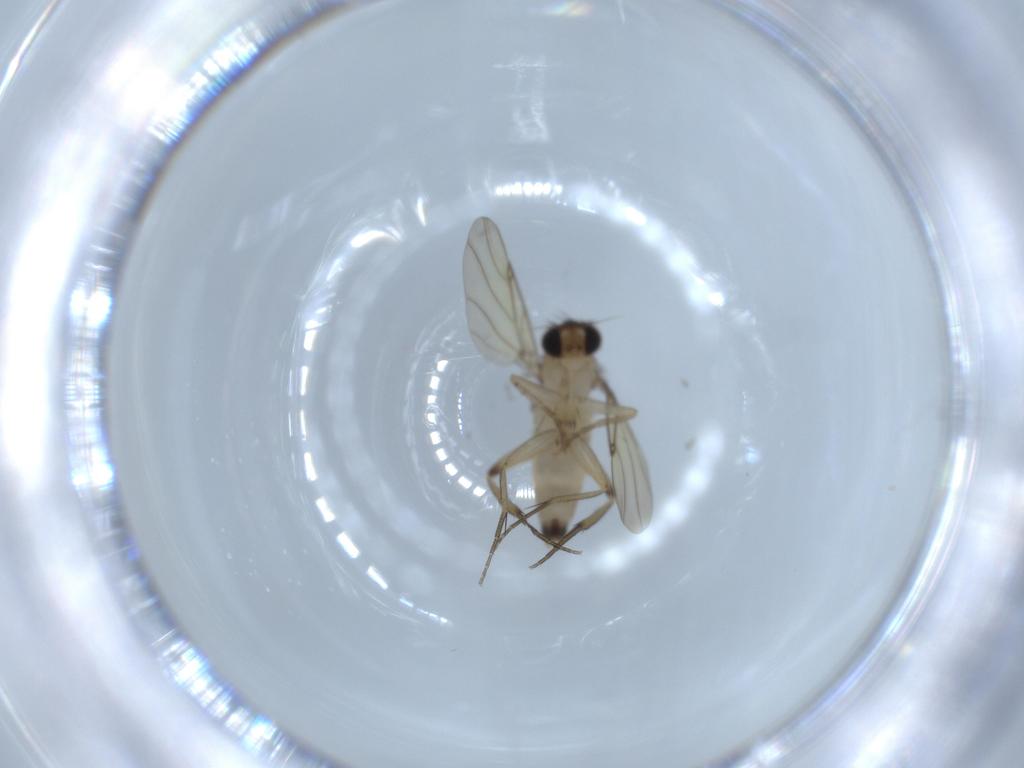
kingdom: Animalia
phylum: Arthropoda
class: Insecta
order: Diptera
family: Phoridae
